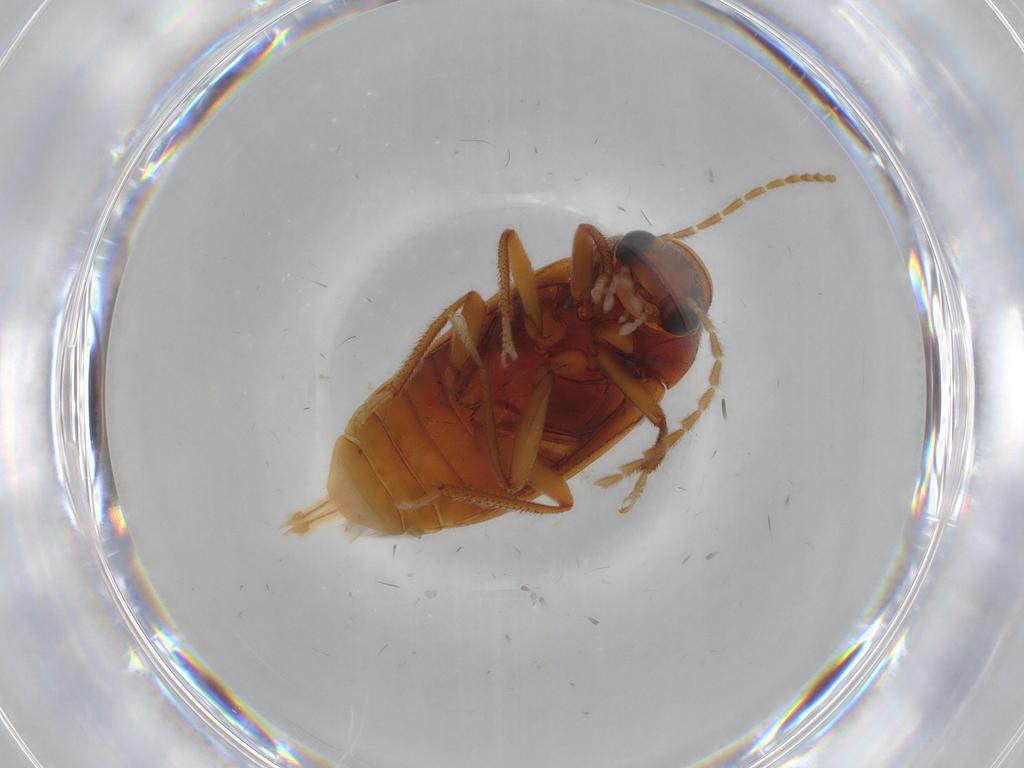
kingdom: Animalia
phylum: Arthropoda
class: Insecta
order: Coleoptera
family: Ptilodactylidae
